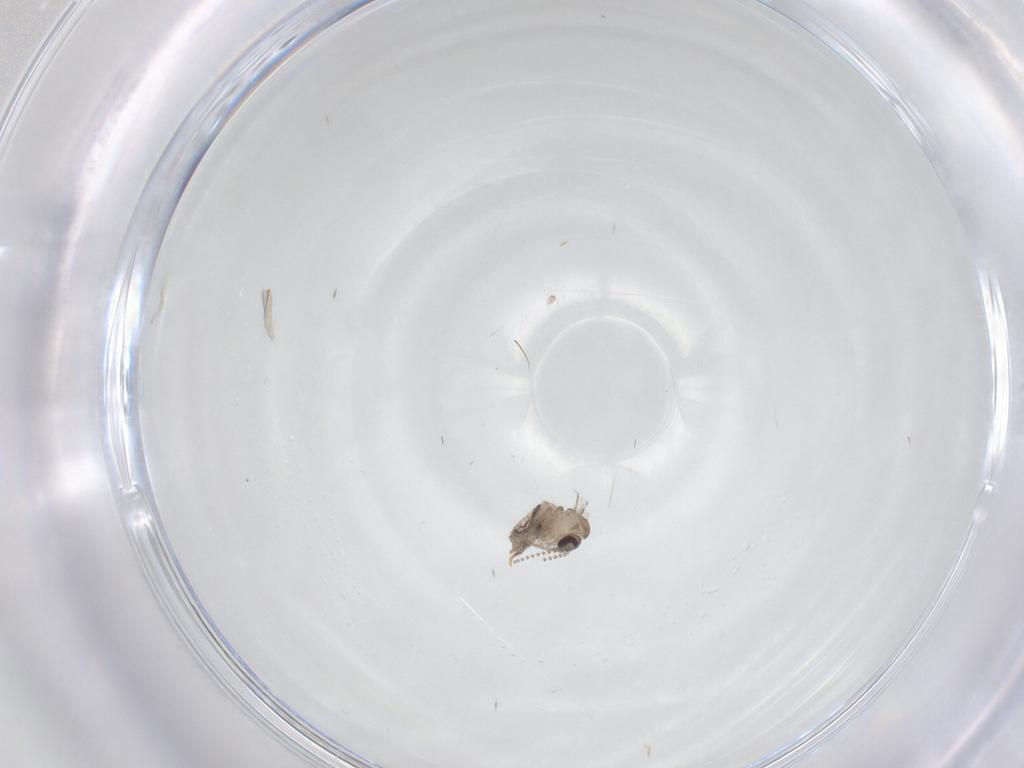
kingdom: Animalia
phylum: Arthropoda
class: Insecta
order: Diptera
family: Psychodidae
